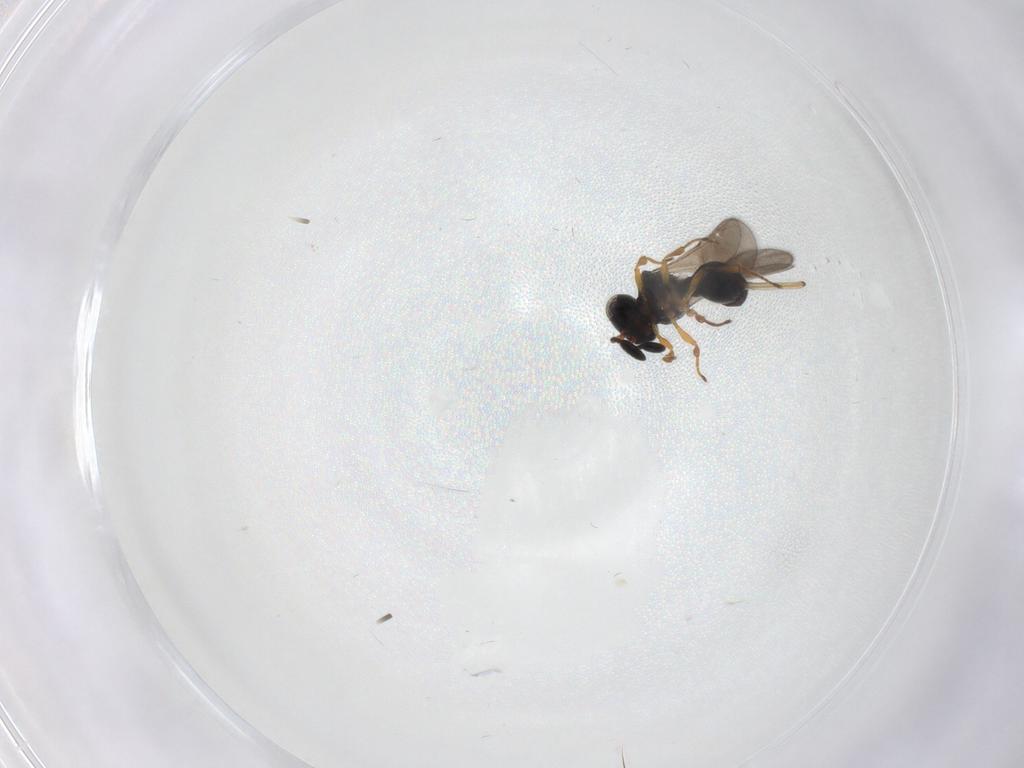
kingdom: Animalia
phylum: Arthropoda
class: Insecta
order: Hymenoptera
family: Scelionidae
